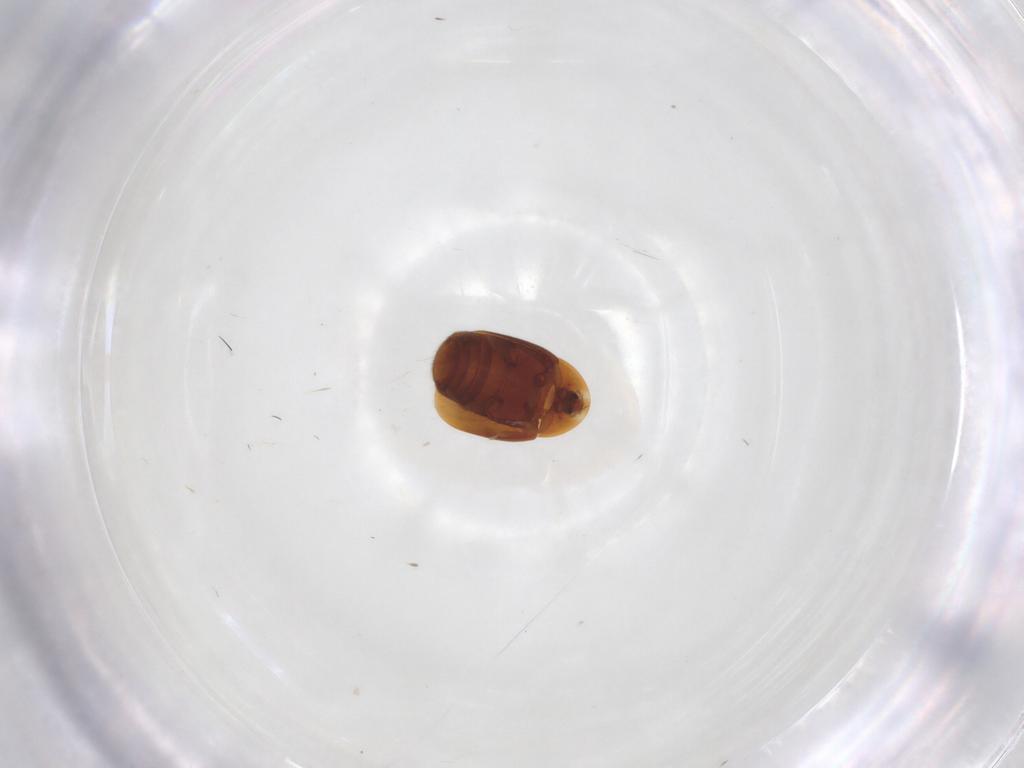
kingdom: Animalia
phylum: Arthropoda
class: Insecta
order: Coleoptera
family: Corylophidae
